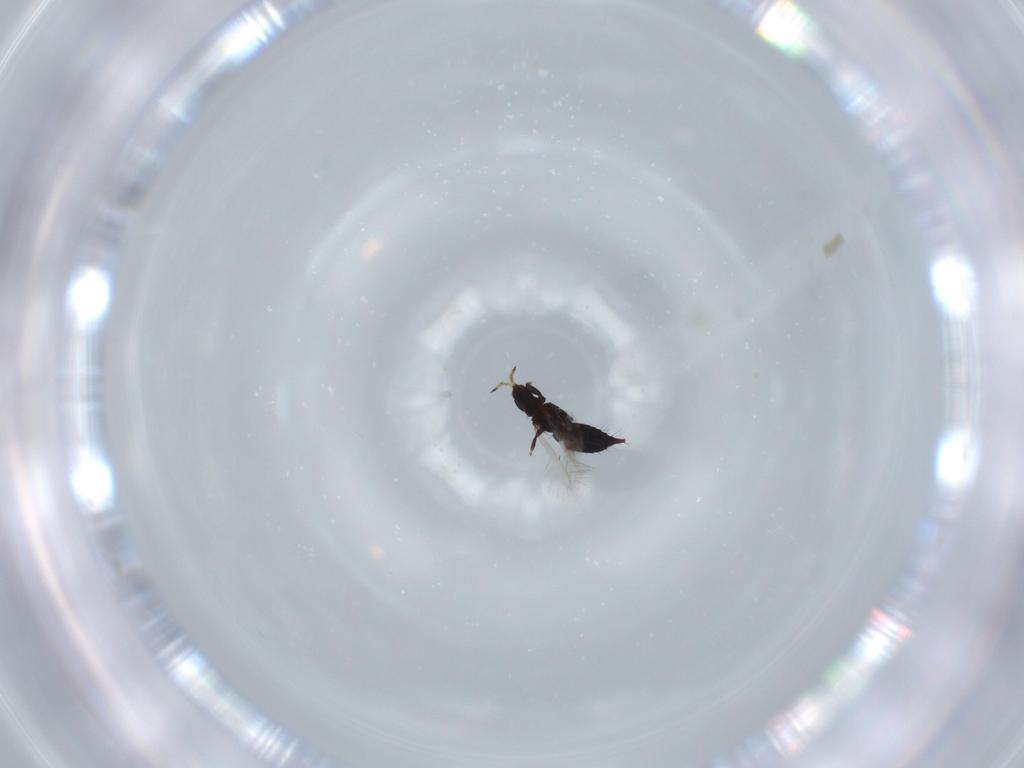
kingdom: Animalia
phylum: Arthropoda
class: Insecta
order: Thysanoptera
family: Phlaeothripidae
